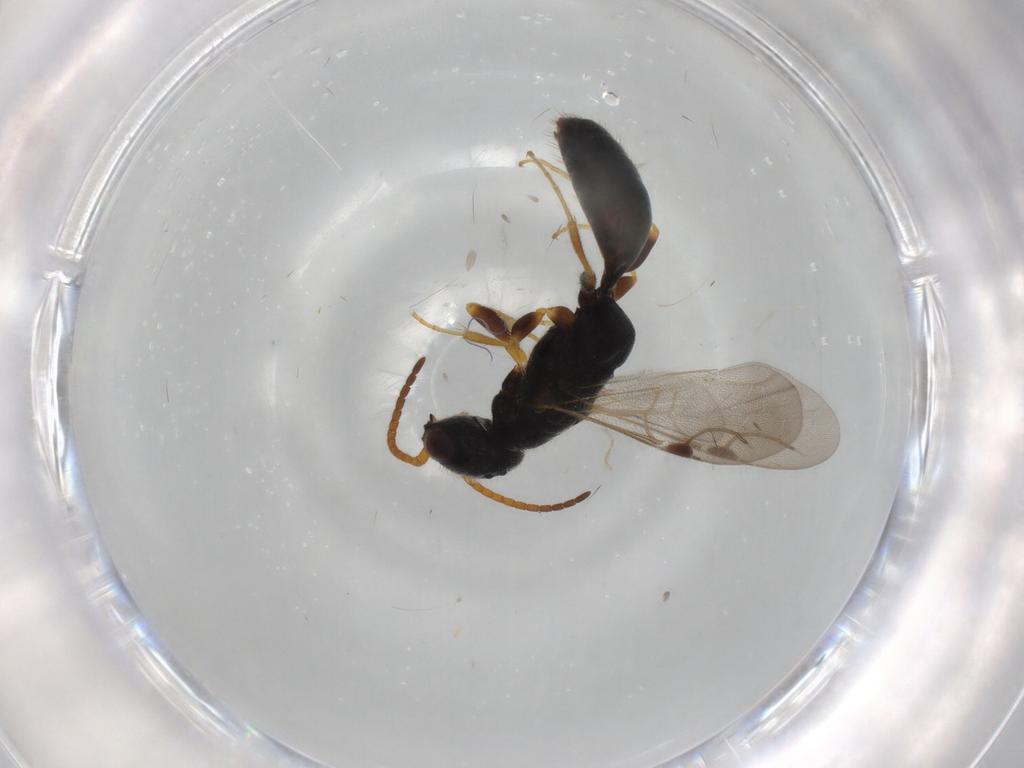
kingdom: Animalia
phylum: Arthropoda
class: Insecta
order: Hymenoptera
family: Bethylidae
